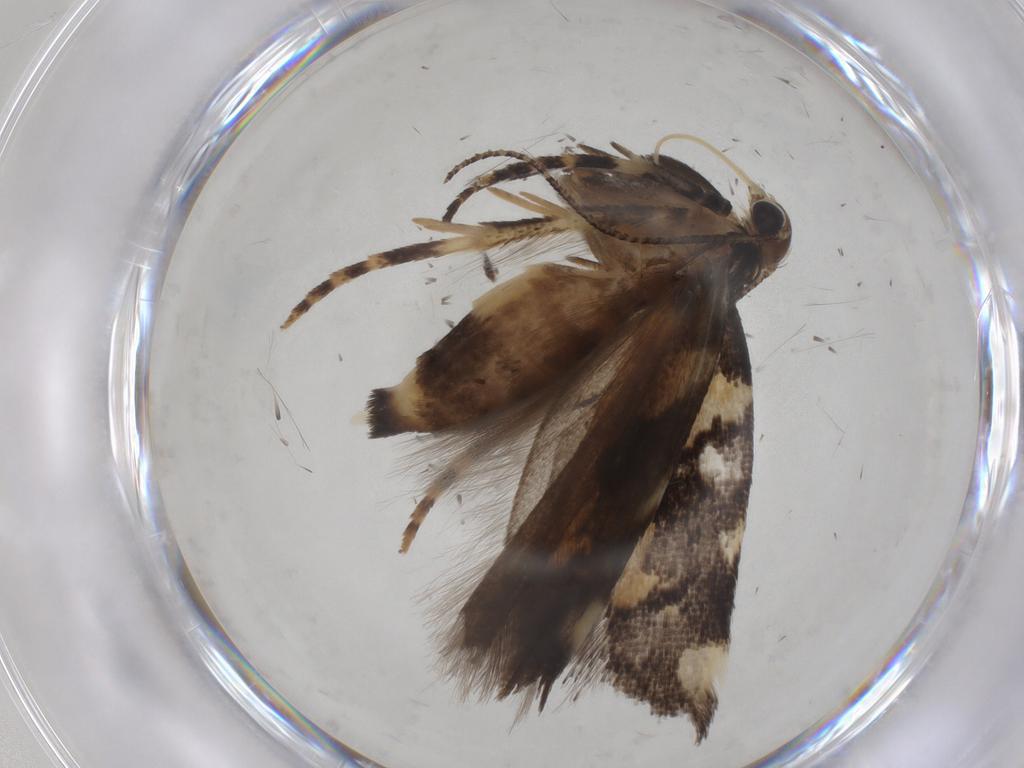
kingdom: Animalia
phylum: Arthropoda
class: Insecta
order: Lepidoptera
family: Gelechiidae
